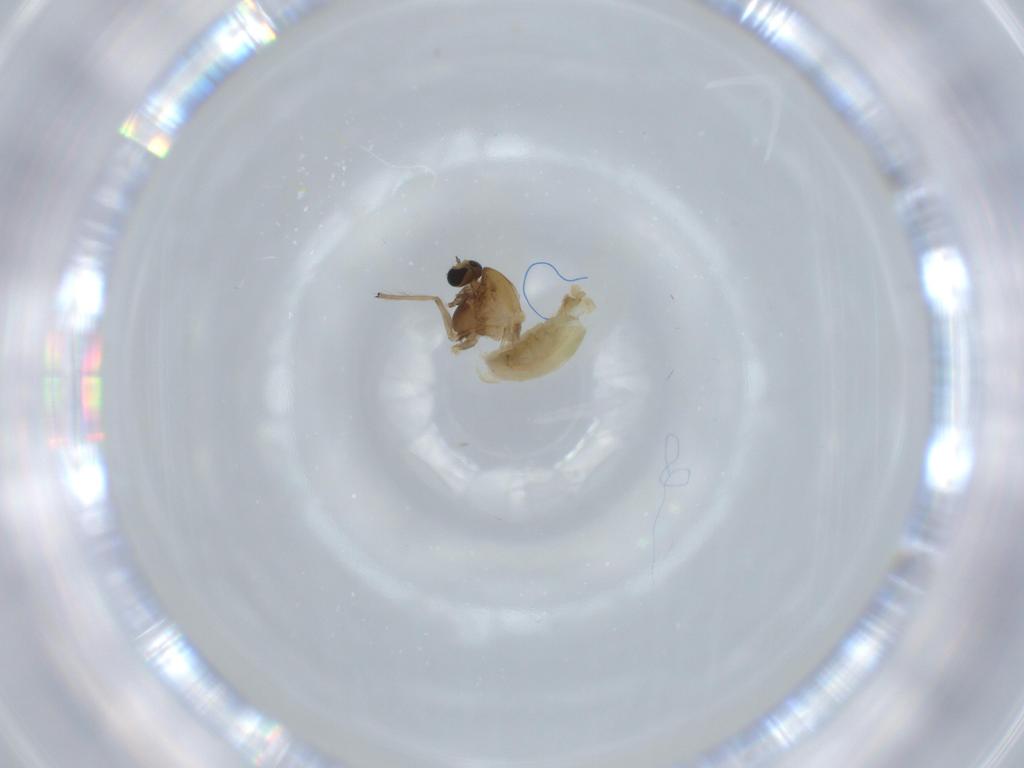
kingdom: Animalia
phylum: Arthropoda
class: Insecta
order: Diptera
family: Chironomidae
